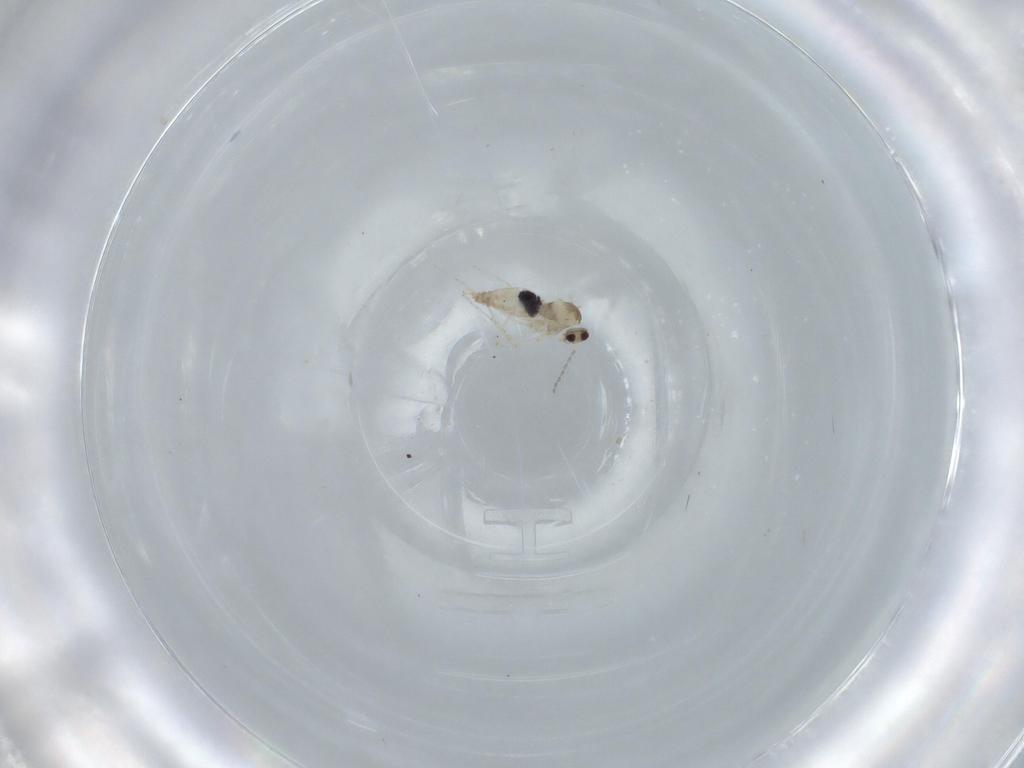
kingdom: Animalia
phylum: Arthropoda
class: Insecta
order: Diptera
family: Cecidomyiidae
